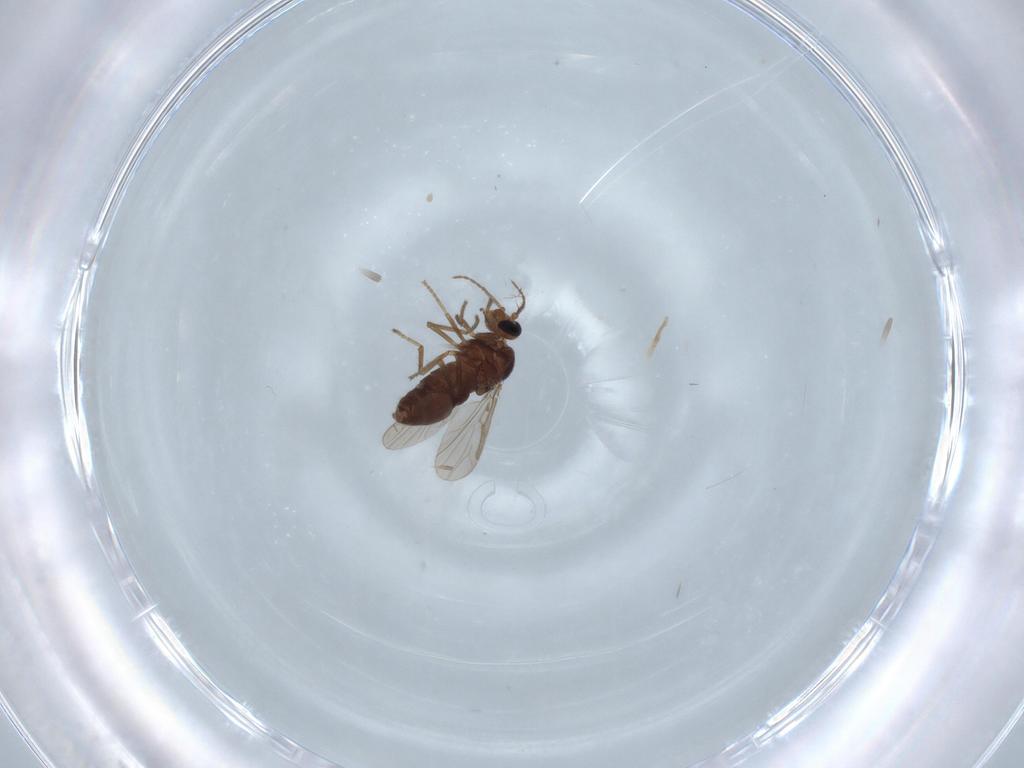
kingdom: Animalia
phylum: Arthropoda
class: Insecta
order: Diptera
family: Ceratopogonidae
